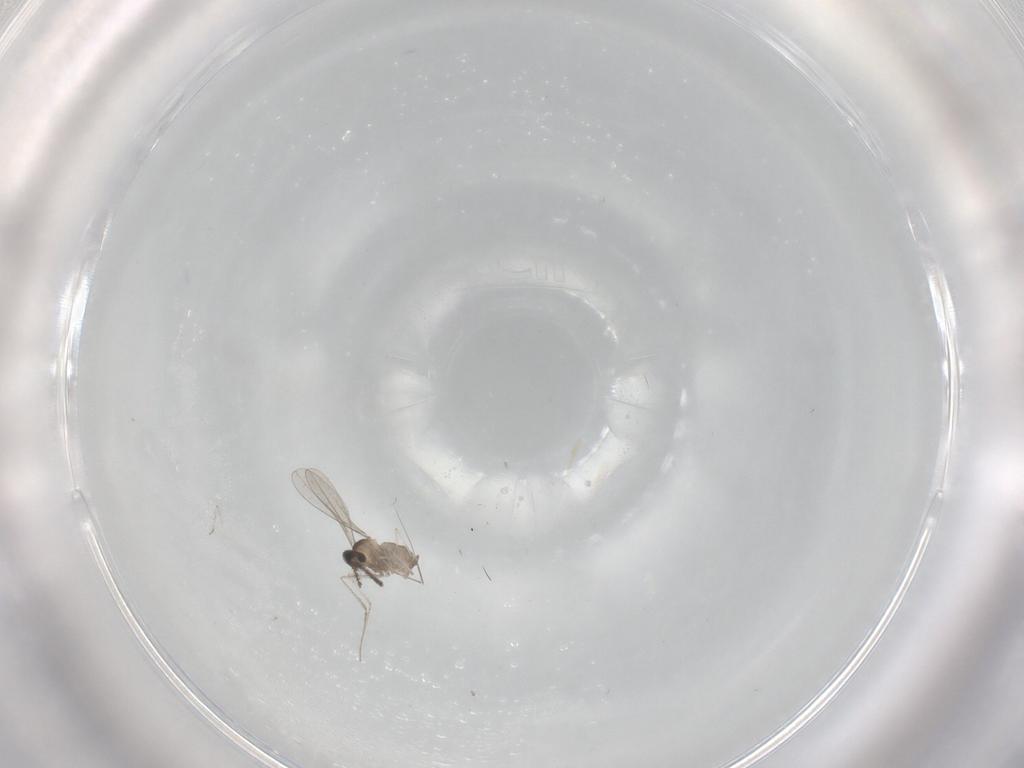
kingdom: Animalia
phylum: Arthropoda
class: Insecta
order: Diptera
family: Cecidomyiidae
